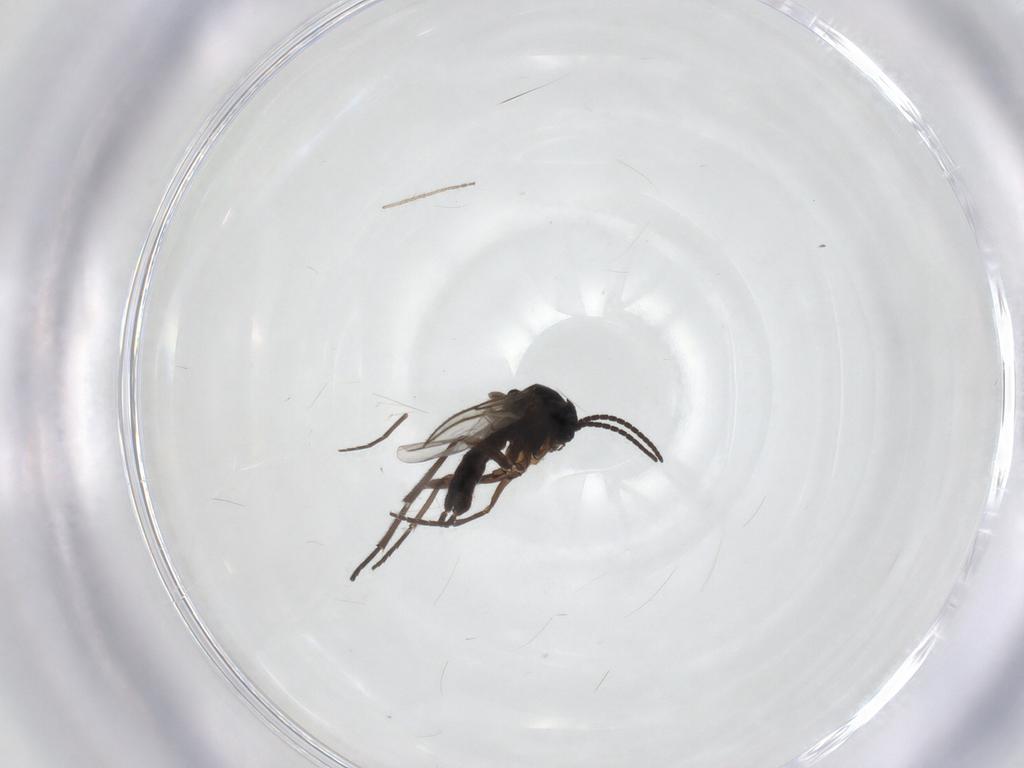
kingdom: Animalia
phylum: Arthropoda
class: Insecta
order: Diptera
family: Sciaridae
